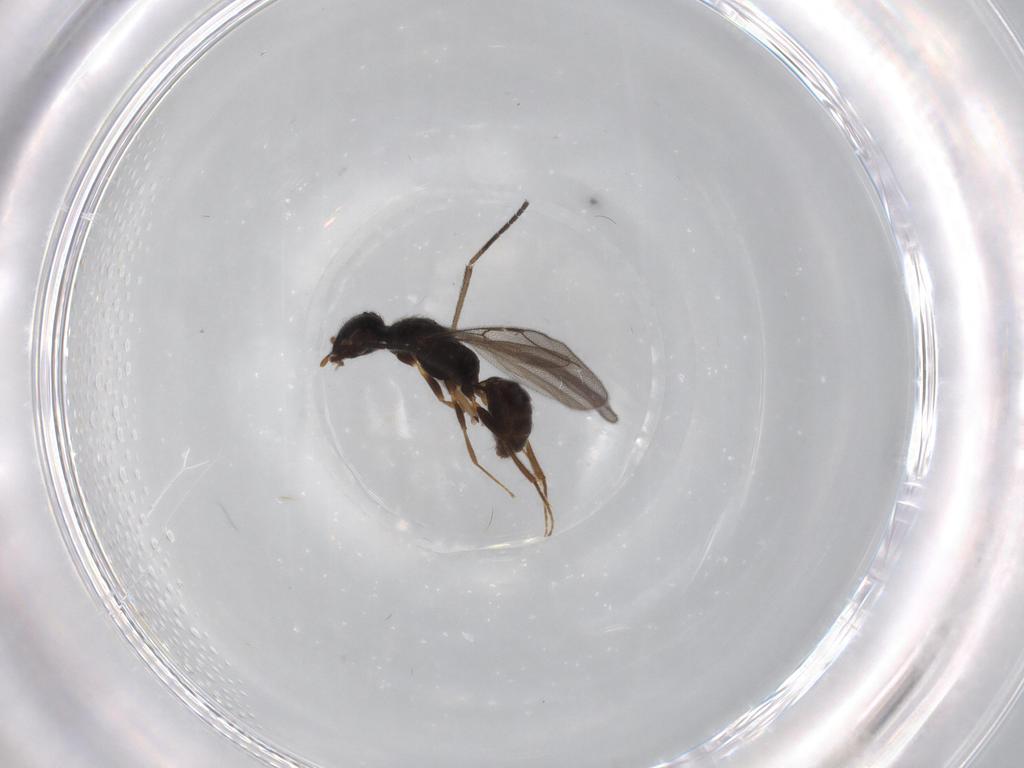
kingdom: Animalia
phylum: Arthropoda
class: Insecta
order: Hymenoptera
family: Bethylidae
